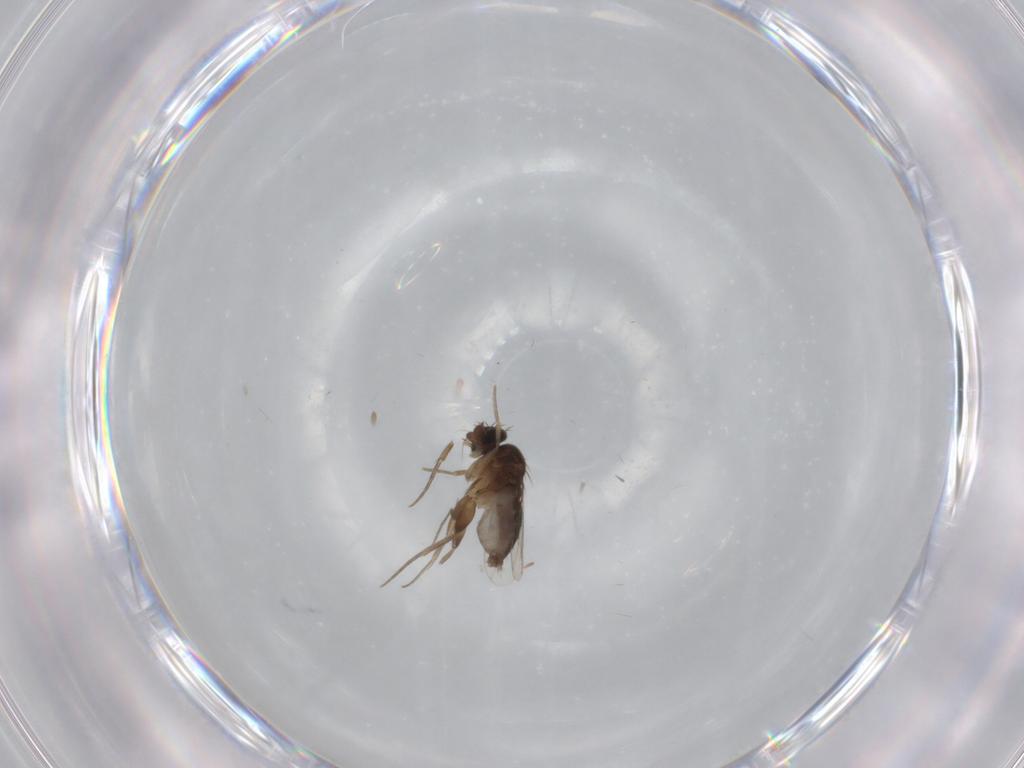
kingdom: Animalia
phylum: Arthropoda
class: Insecta
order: Diptera
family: Phoridae
